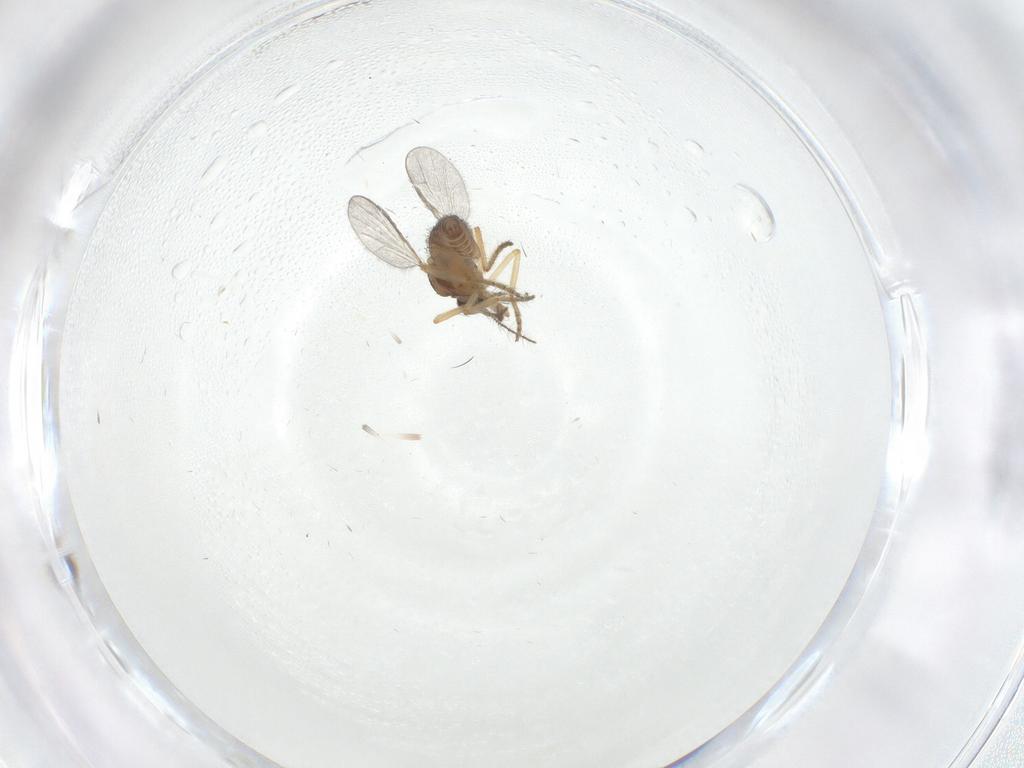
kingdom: Animalia
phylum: Arthropoda
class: Insecta
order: Diptera
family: Ceratopogonidae
